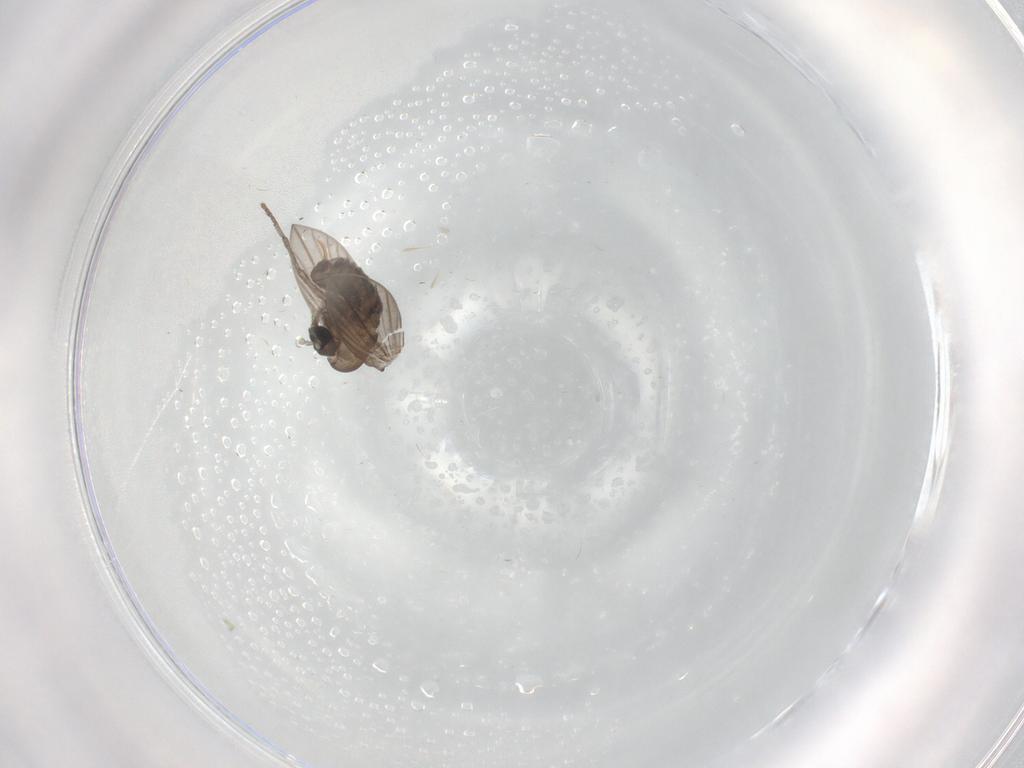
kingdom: Animalia
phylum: Arthropoda
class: Insecta
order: Diptera
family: Psychodidae
